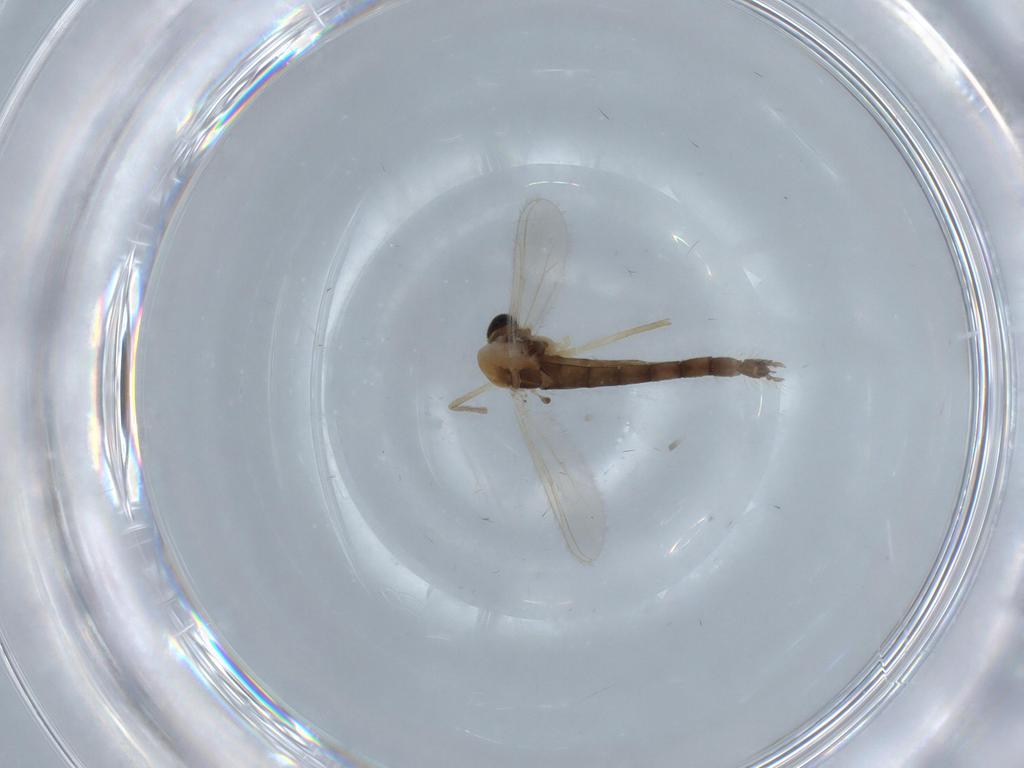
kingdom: Animalia
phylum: Arthropoda
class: Insecta
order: Diptera
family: Chironomidae
